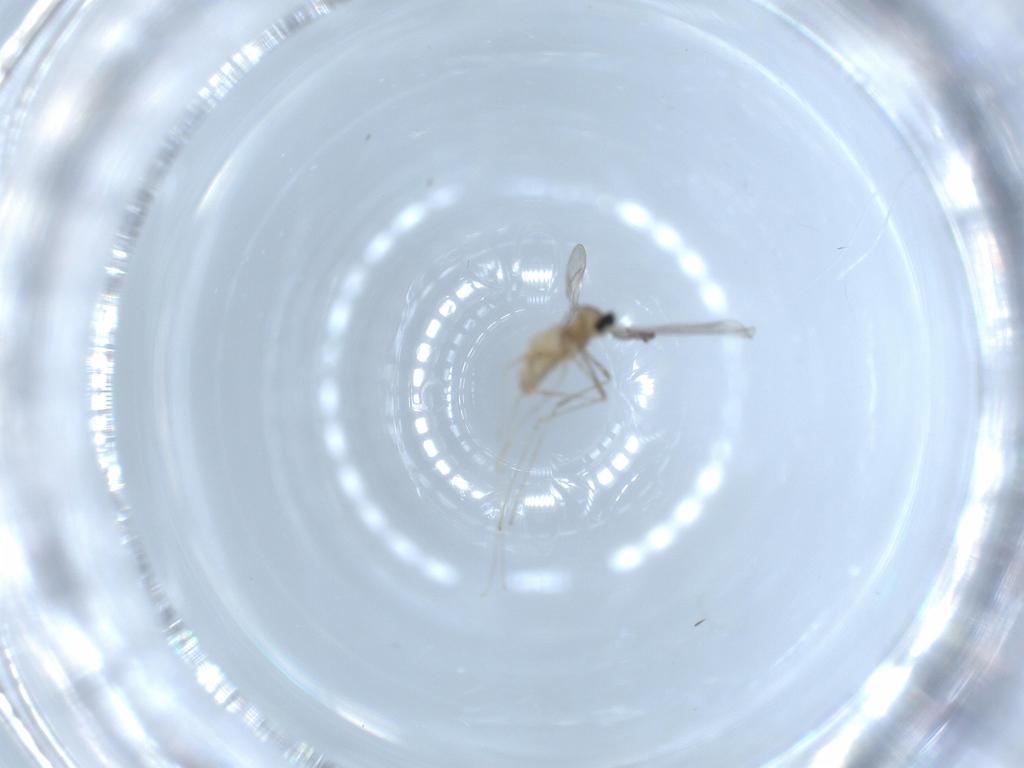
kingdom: Animalia
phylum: Arthropoda
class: Insecta
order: Diptera
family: Cecidomyiidae
